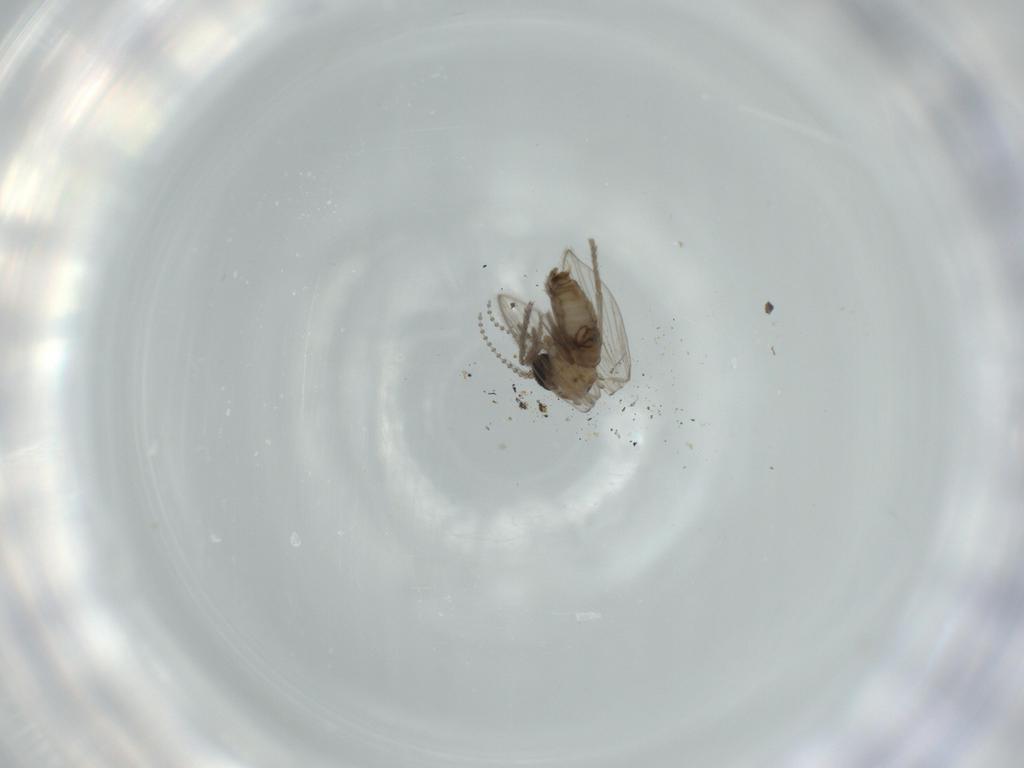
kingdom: Animalia
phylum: Arthropoda
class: Insecta
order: Diptera
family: Psychodidae
